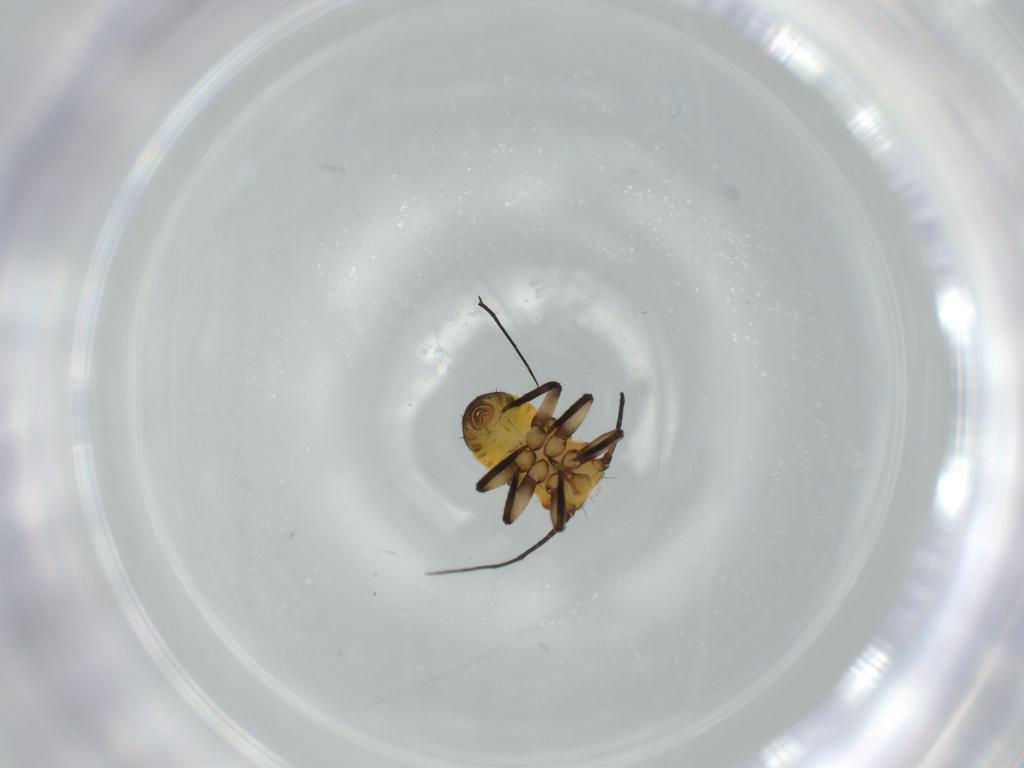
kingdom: Animalia
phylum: Arthropoda
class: Insecta
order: Hemiptera
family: Psyllidae
